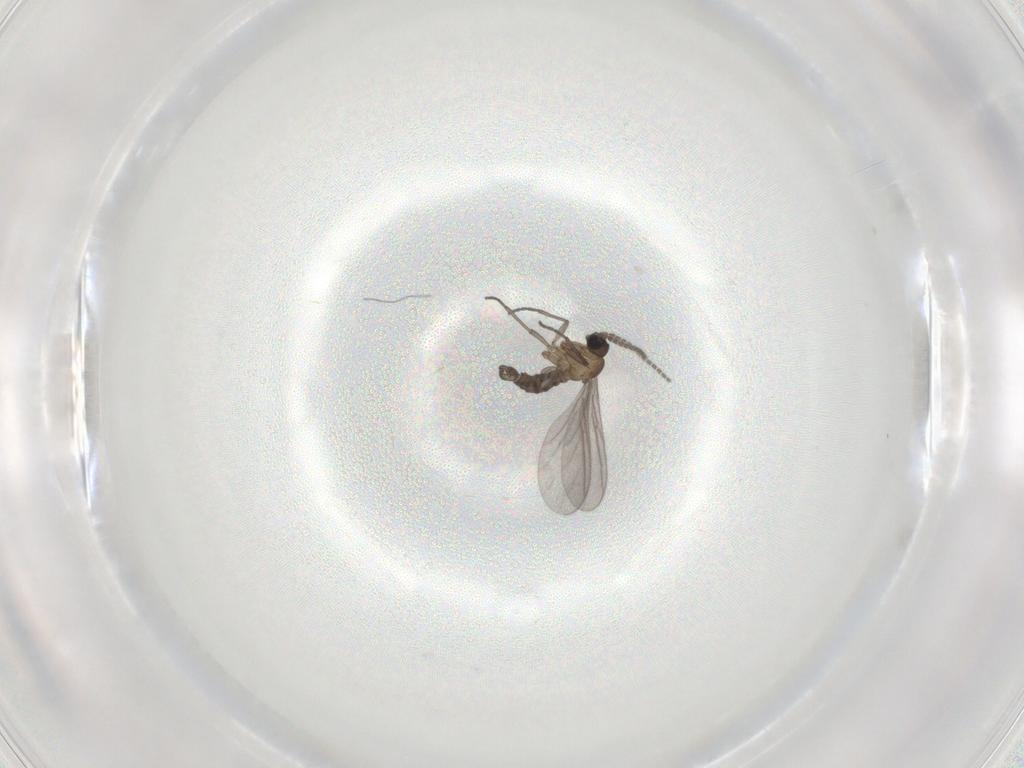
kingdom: Animalia
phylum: Arthropoda
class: Insecta
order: Diptera
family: Sciaridae
